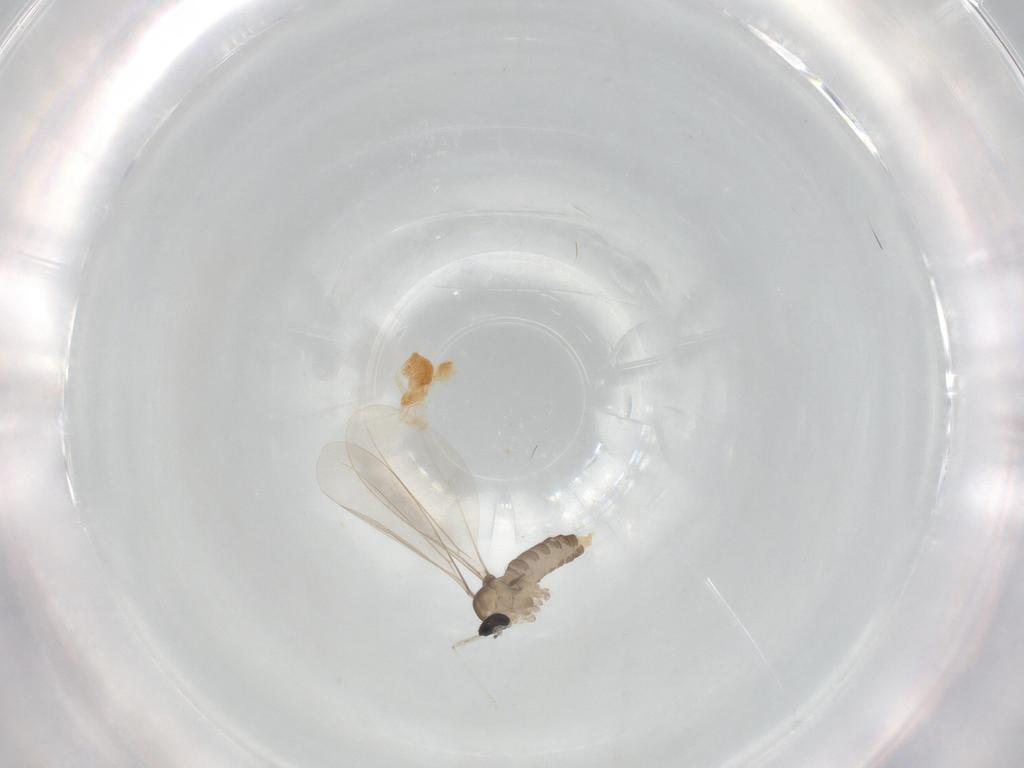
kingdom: Animalia
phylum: Arthropoda
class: Insecta
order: Diptera
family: Cecidomyiidae
